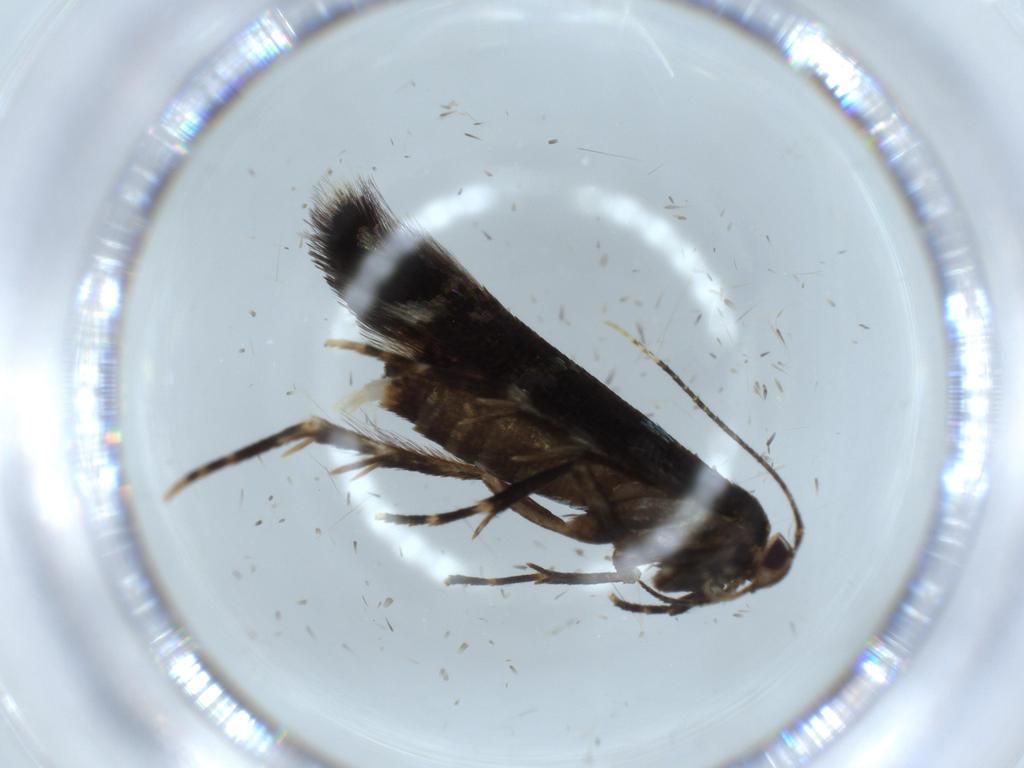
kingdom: Animalia
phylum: Arthropoda
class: Insecta
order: Lepidoptera
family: Cosmopterigidae
